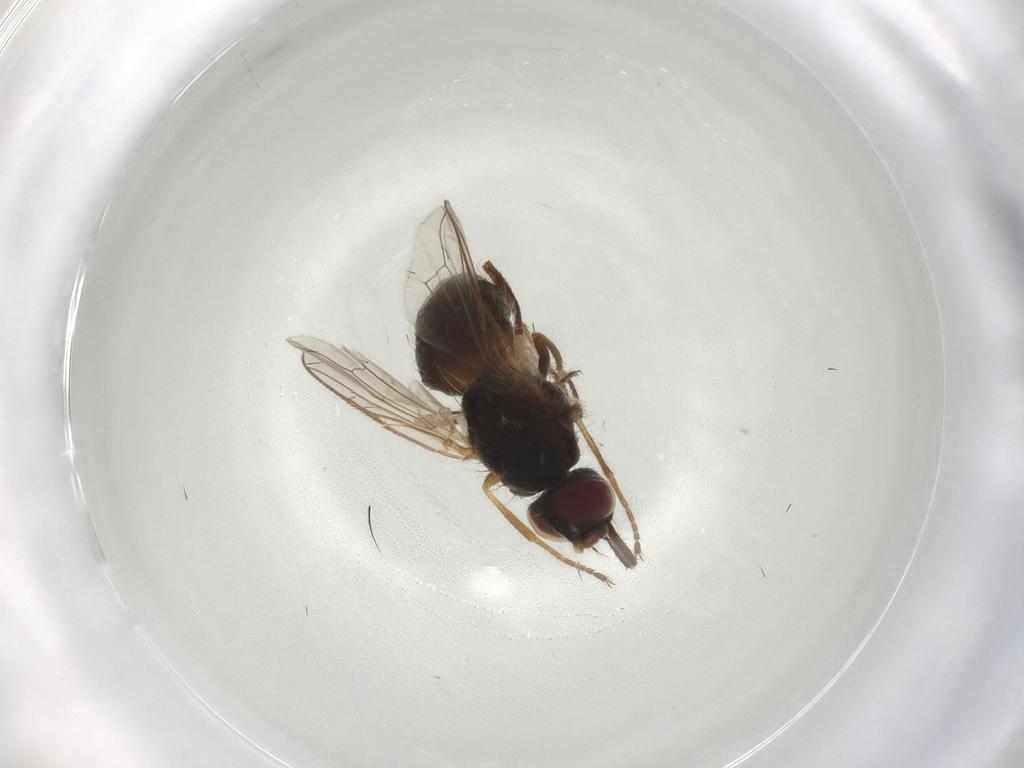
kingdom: Animalia
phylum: Arthropoda
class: Insecta
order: Diptera
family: Muscidae
